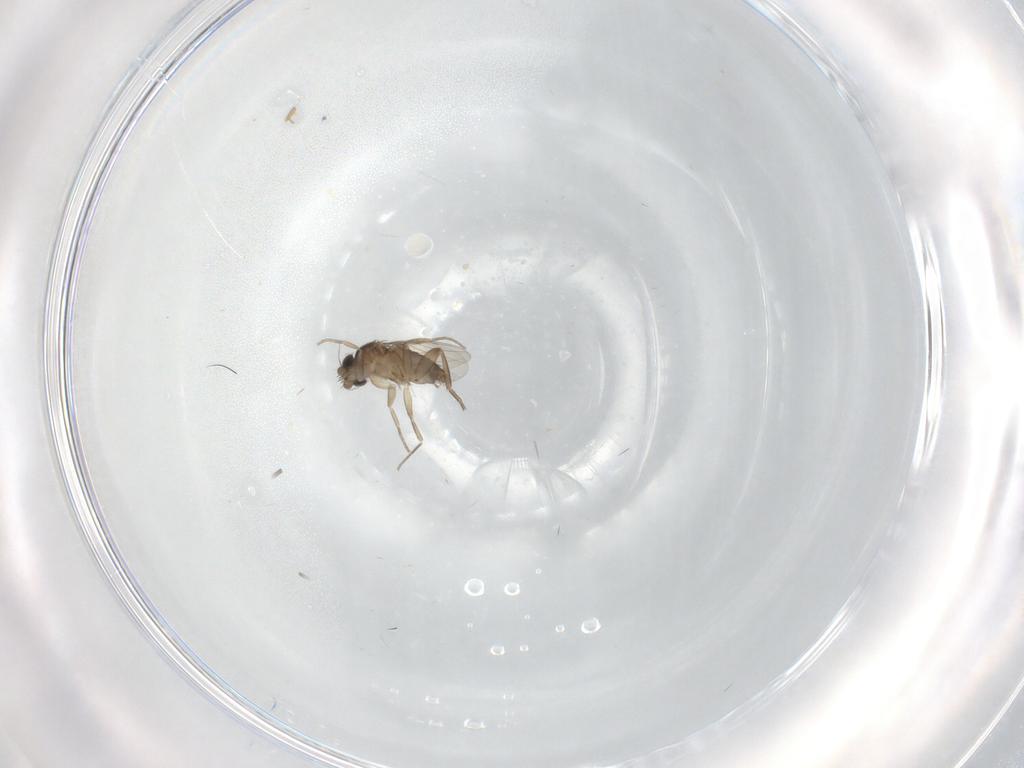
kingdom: Animalia
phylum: Arthropoda
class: Insecta
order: Diptera
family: Phoridae
